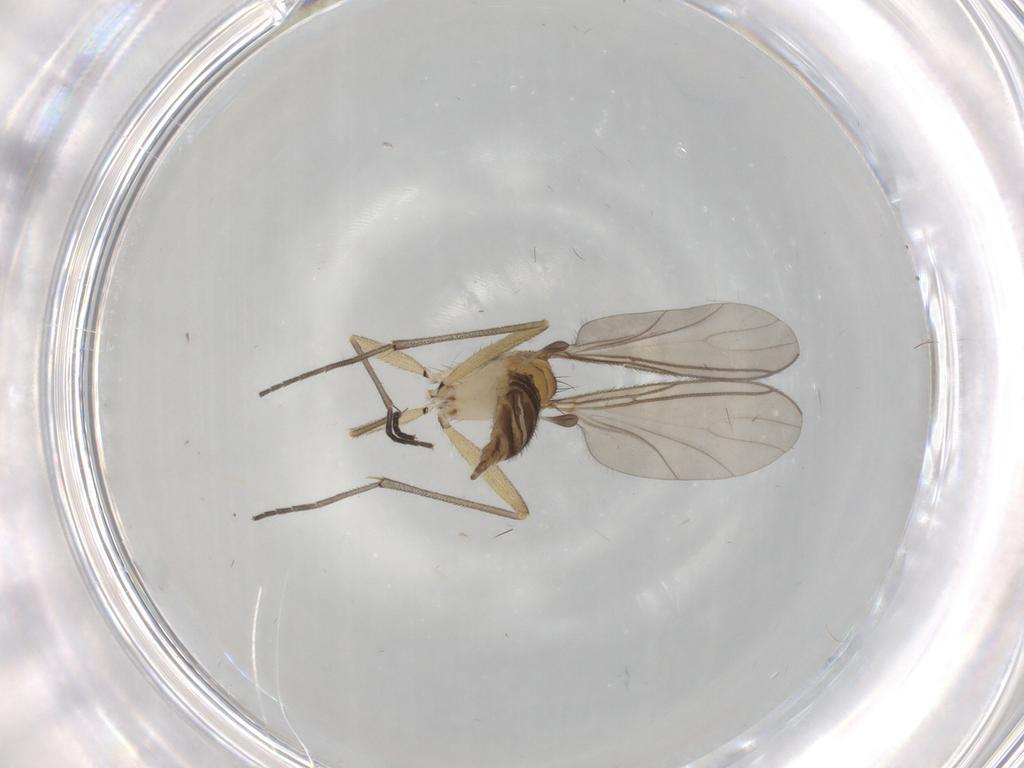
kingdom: Animalia
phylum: Arthropoda
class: Insecta
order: Diptera
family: Sciaridae
